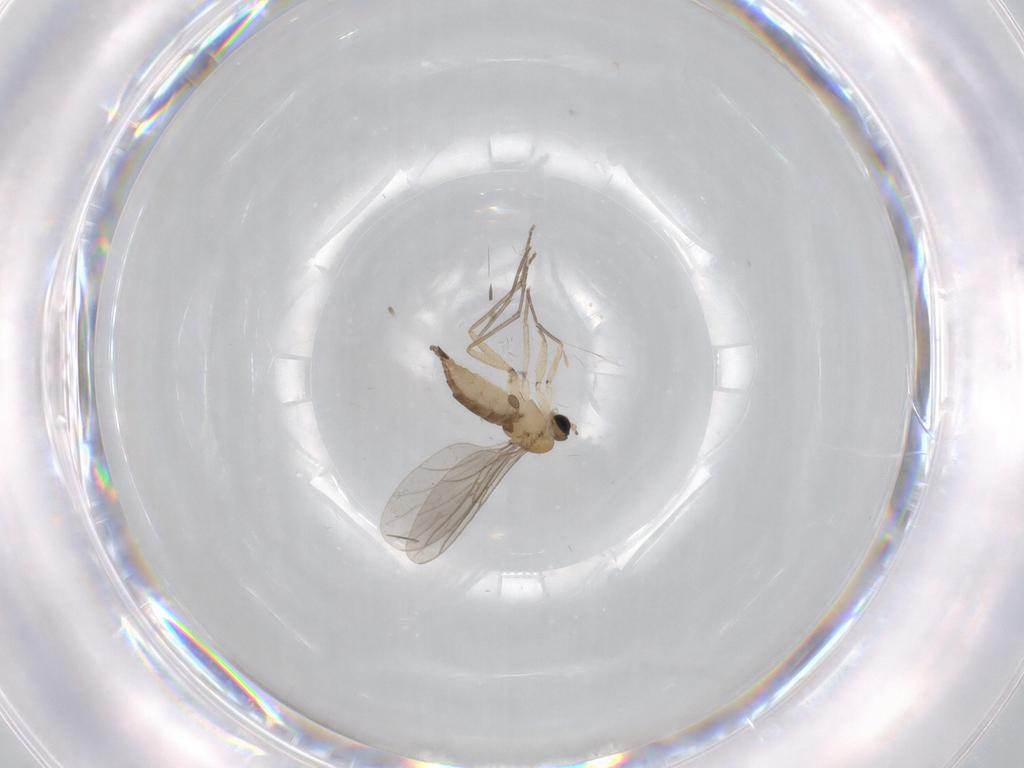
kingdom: Animalia
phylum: Arthropoda
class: Insecta
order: Diptera
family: Sciaridae
